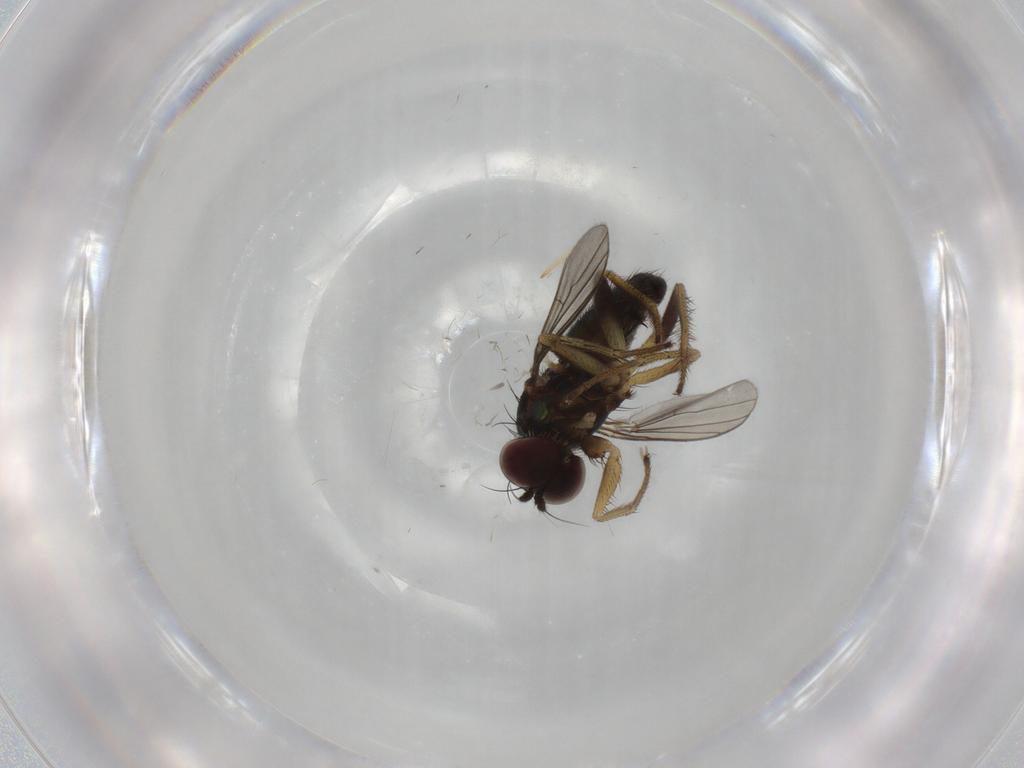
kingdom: Animalia
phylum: Arthropoda
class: Insecta
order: Diptera
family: Dolichopodidae
